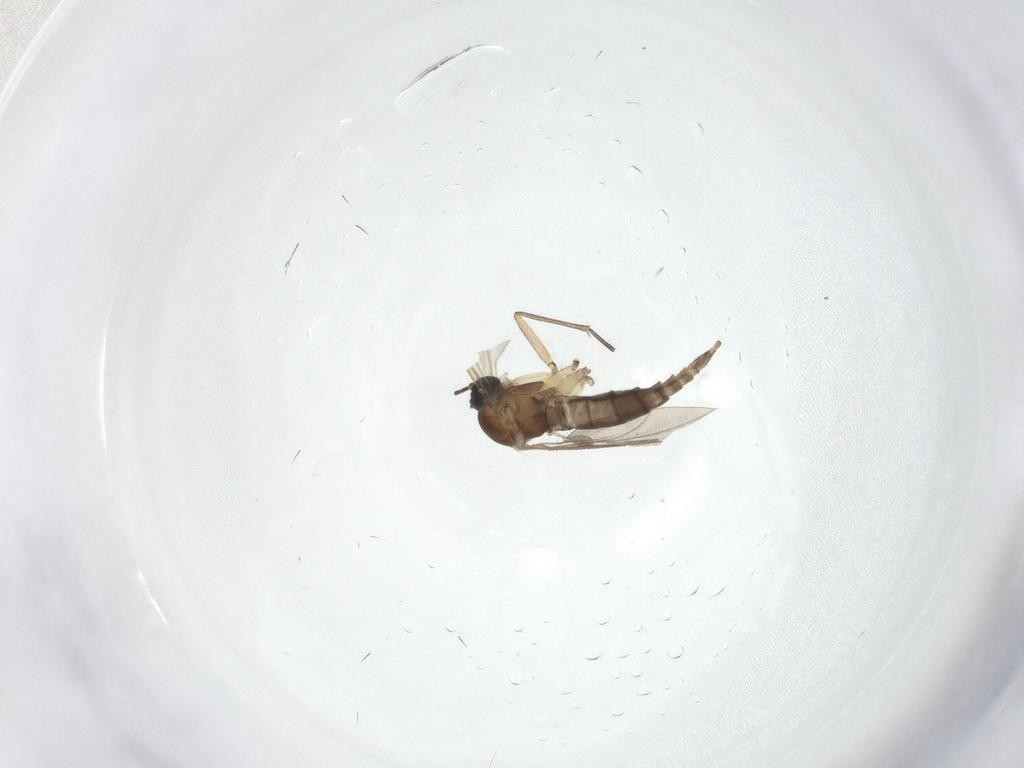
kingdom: Animalia
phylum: Arthropoda
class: Insecta
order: Diptera
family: Sciaridae
